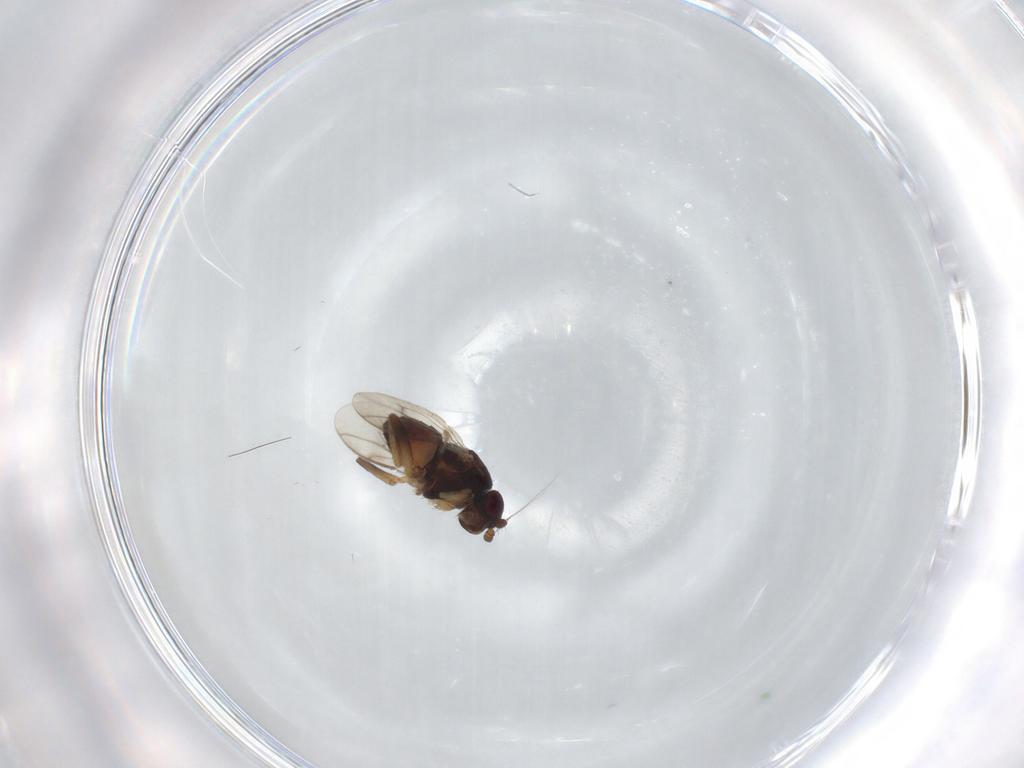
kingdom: Animalia
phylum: Arthropoda
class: Insecta
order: Diptera
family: Sphaeroceridae
